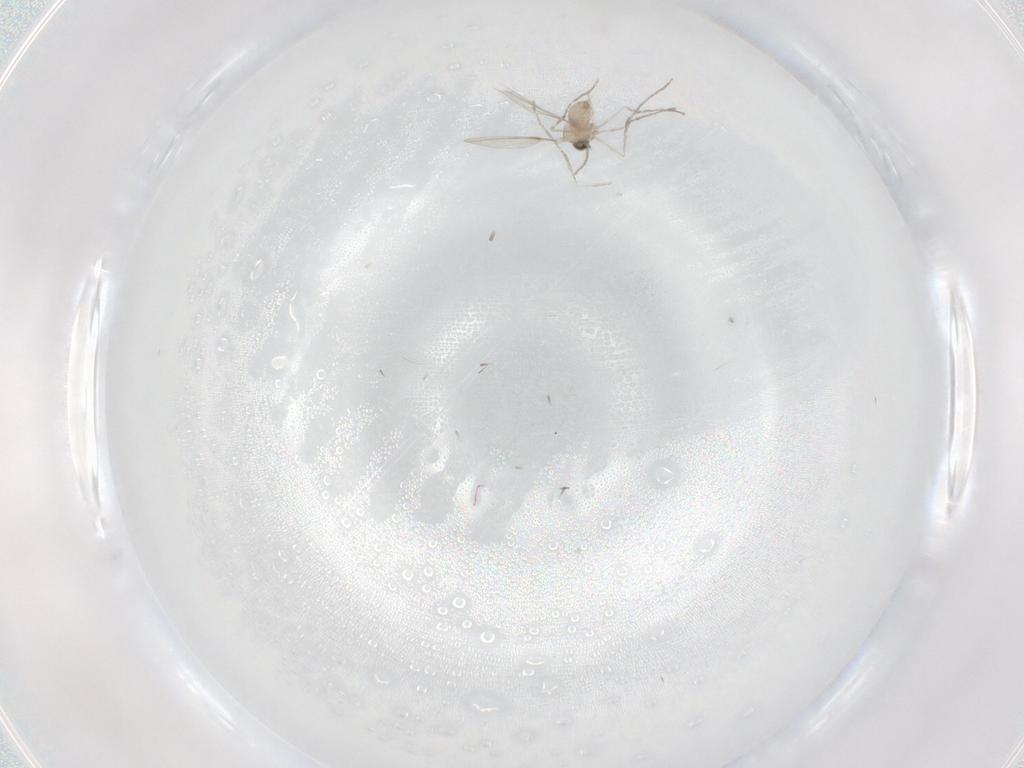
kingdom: Animalia
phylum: Arthropoda
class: Insecta
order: Diptera
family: Cecidomyiidae
